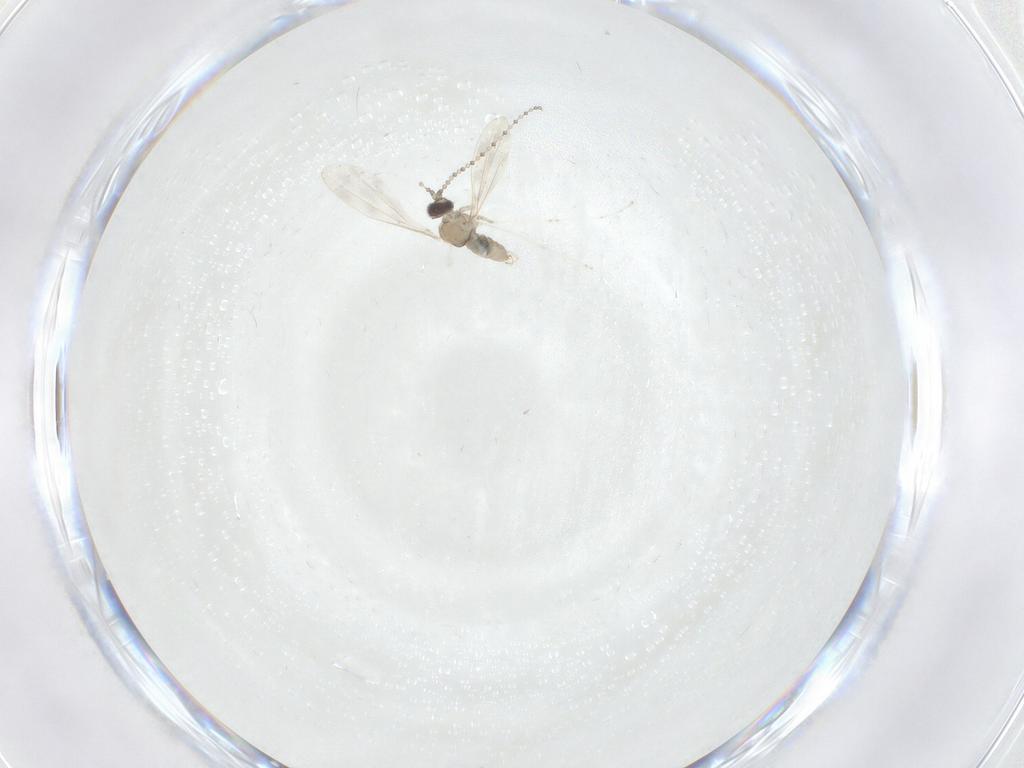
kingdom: Animalia
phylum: Arthropoda
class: Insecta
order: Diptera
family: Cecidomyiidae
